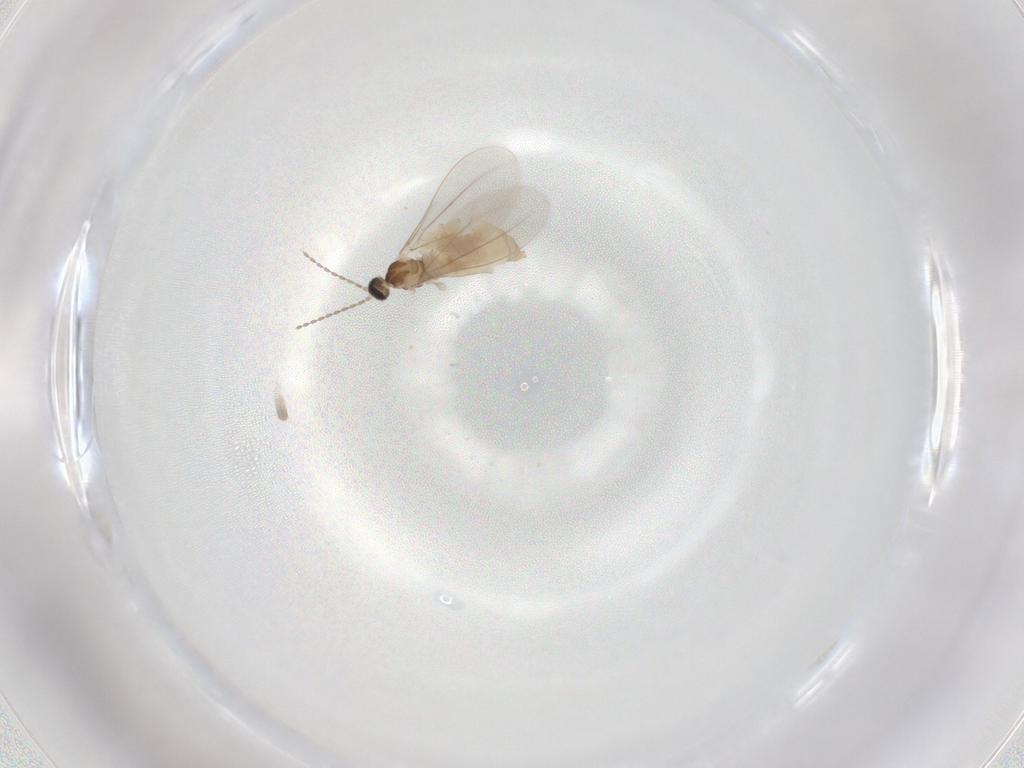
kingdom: Animalia
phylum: Arthropoda
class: Insecta
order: Diptera
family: Cecidomyiidae
